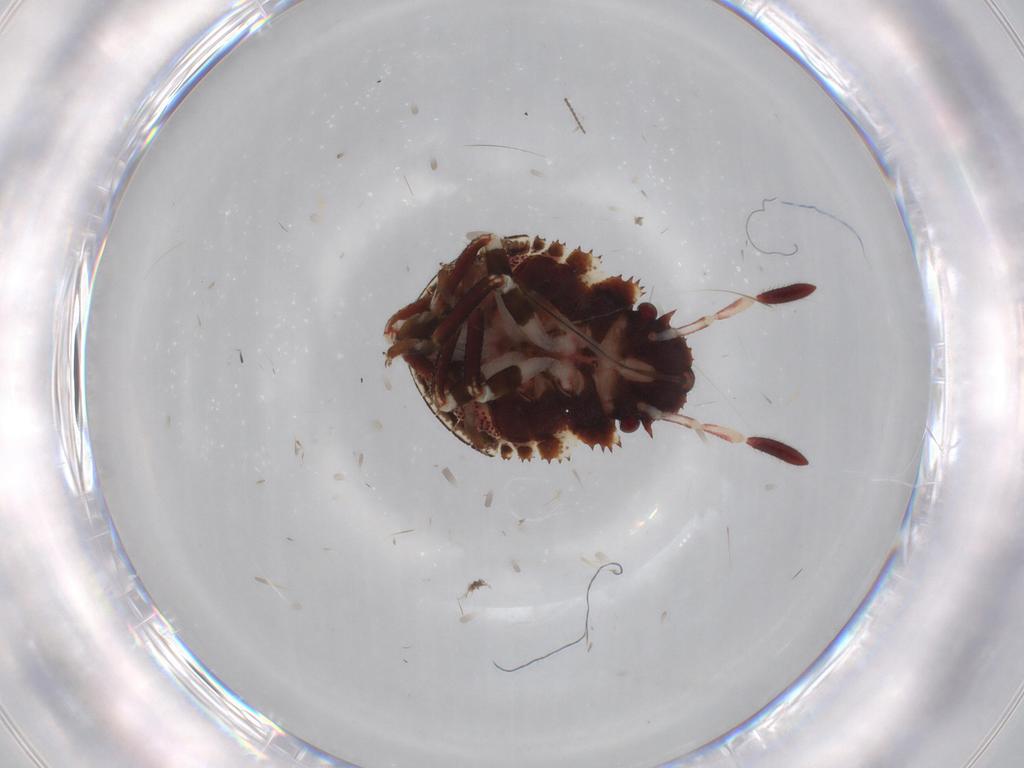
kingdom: Animalia
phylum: Arthropoda
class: Insecta
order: Hemiptera
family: Scutelleridae
